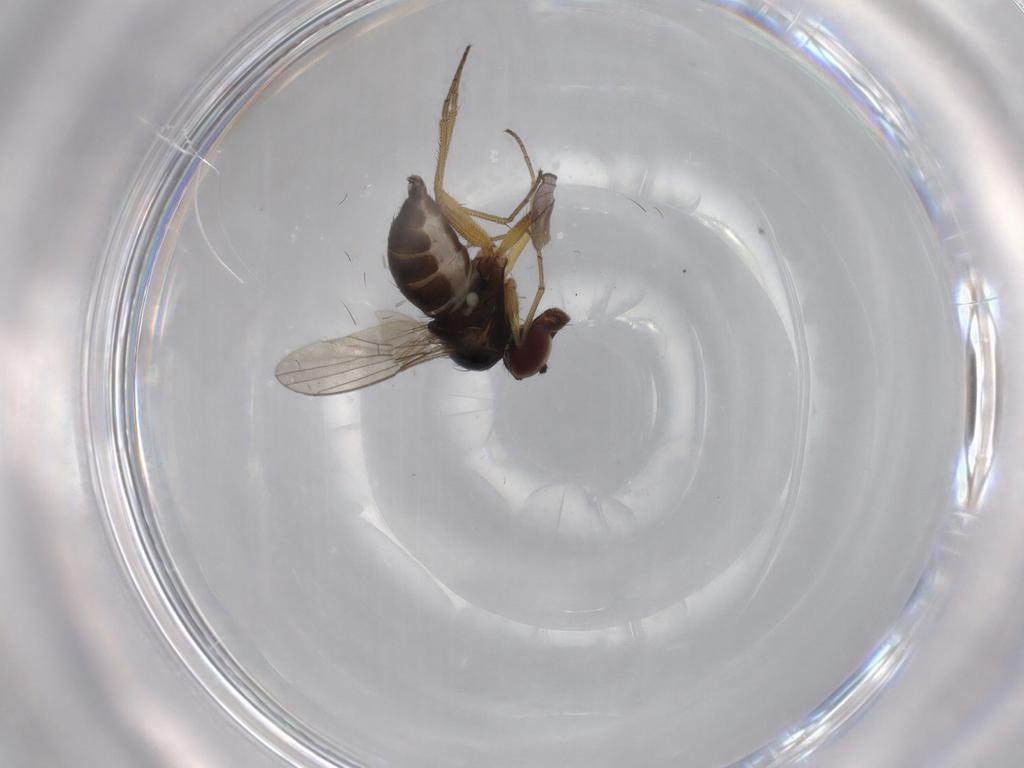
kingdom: Animalia
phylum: Arthropoda
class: Insecta
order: Diptera
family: Dolichopodidae
